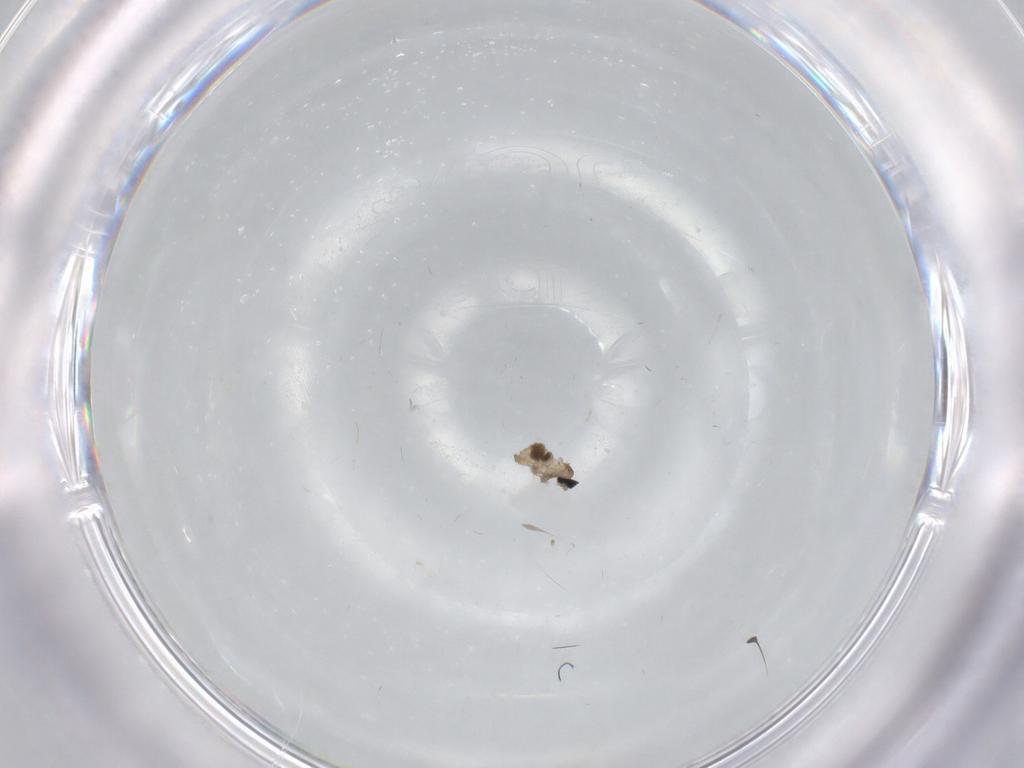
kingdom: Animalia
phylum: Arthropoda
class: Insecta
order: Diptera
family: Cecidomyiidae
